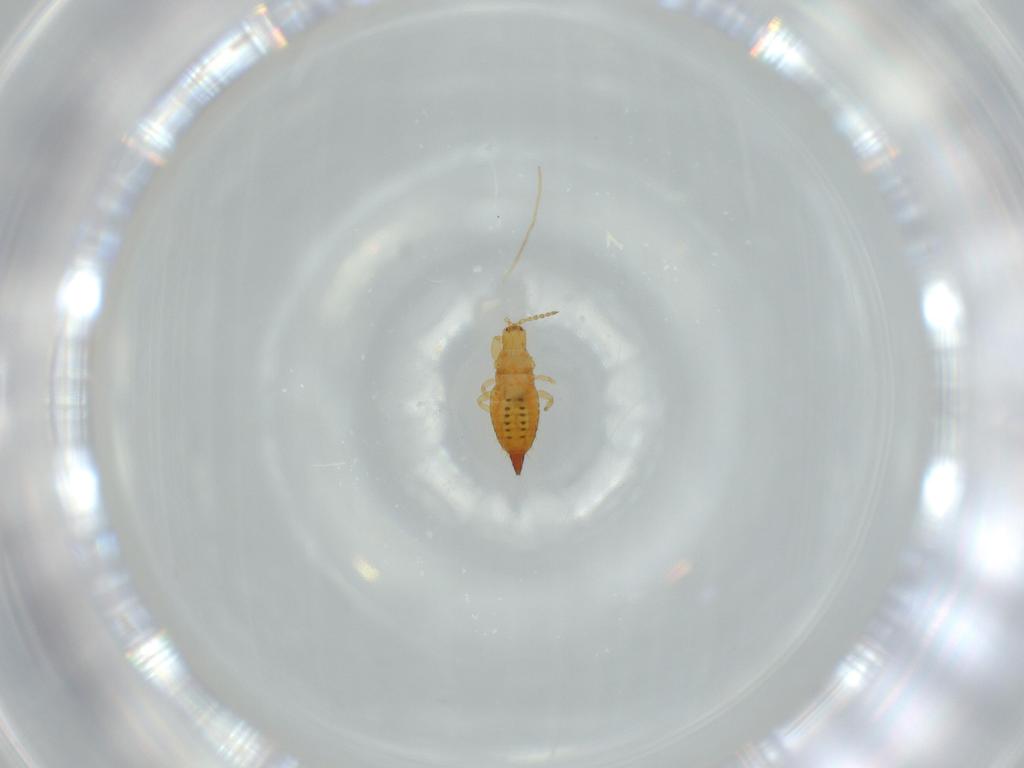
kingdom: Animalia
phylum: Arthropoda
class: Insecta
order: Thysanoptera
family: Phlaeothripidae
